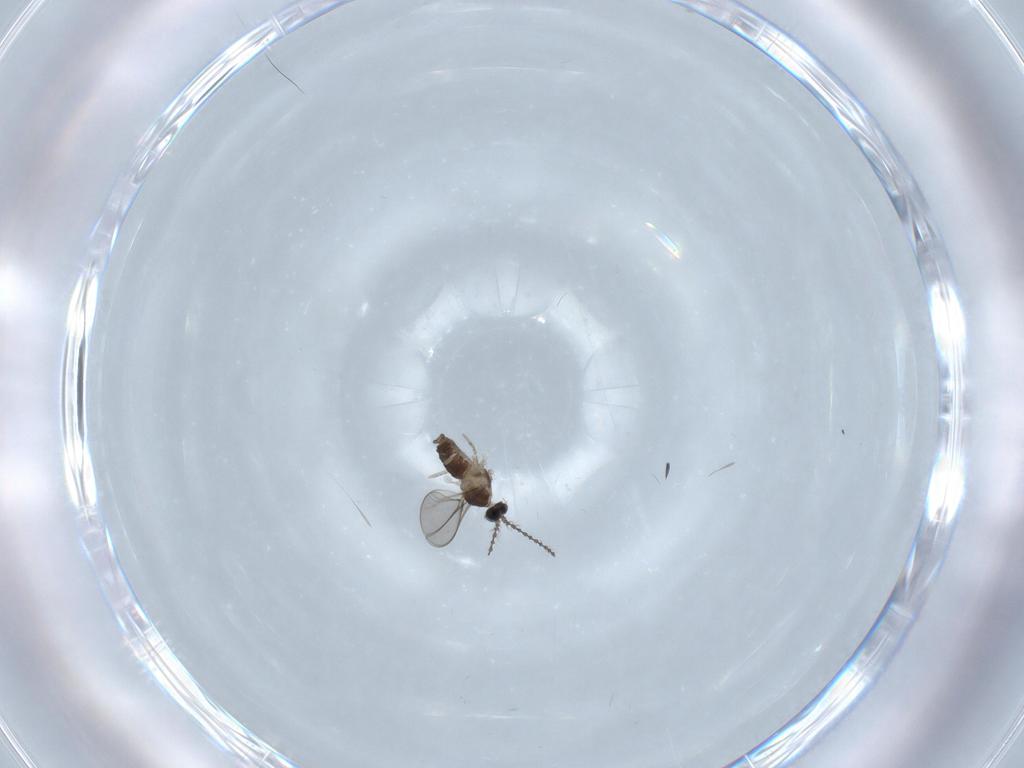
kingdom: Animalia
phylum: Arthropoda
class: Insecta
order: Diptera
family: Cecidomyiidae
